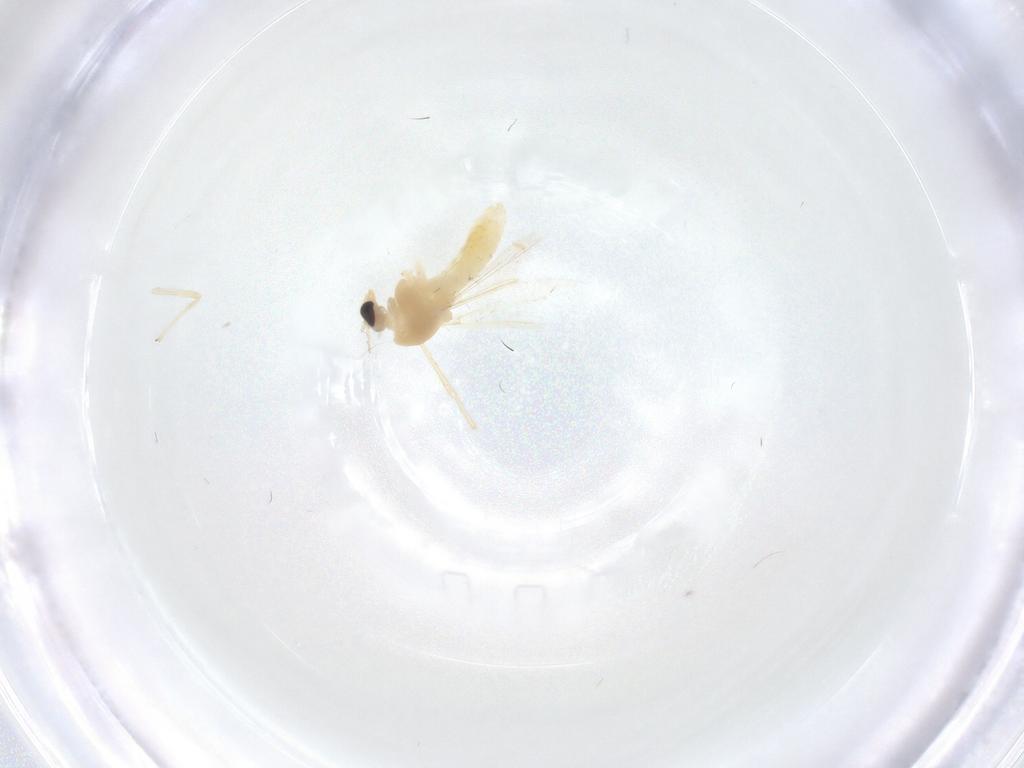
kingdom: Animalia
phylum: Arthropoda
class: Insecta
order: Diptera
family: Chironomidae
